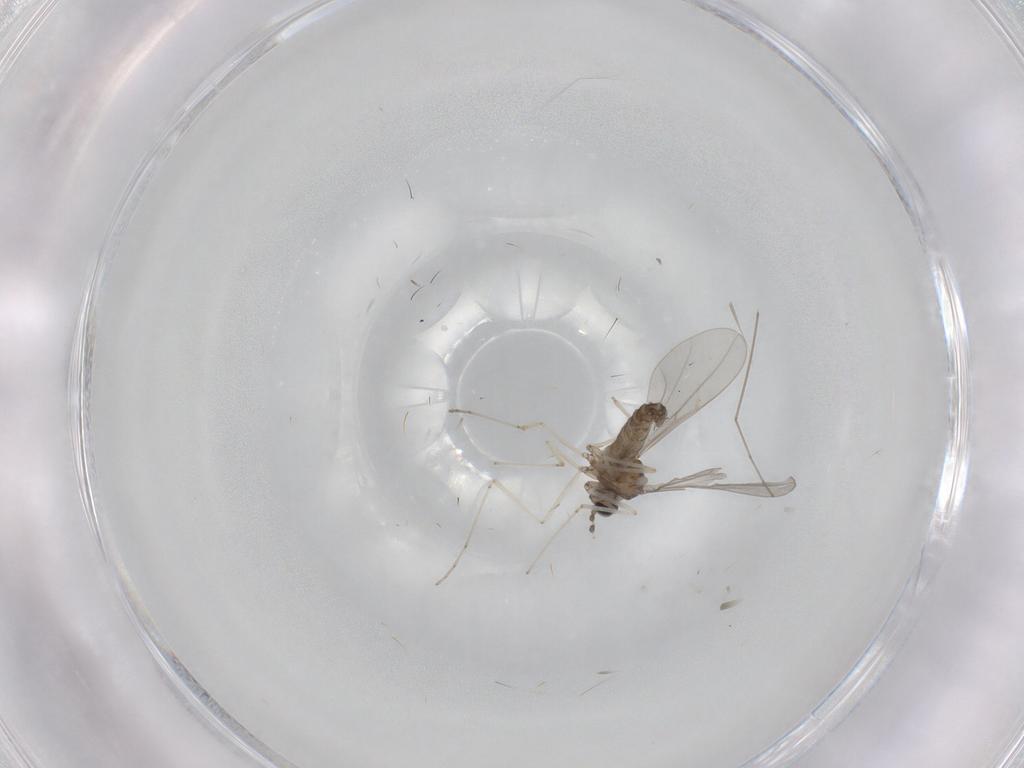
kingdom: Animalia
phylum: Arthropoda
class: Insecta
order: Diptera
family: Cecidomyiidae
